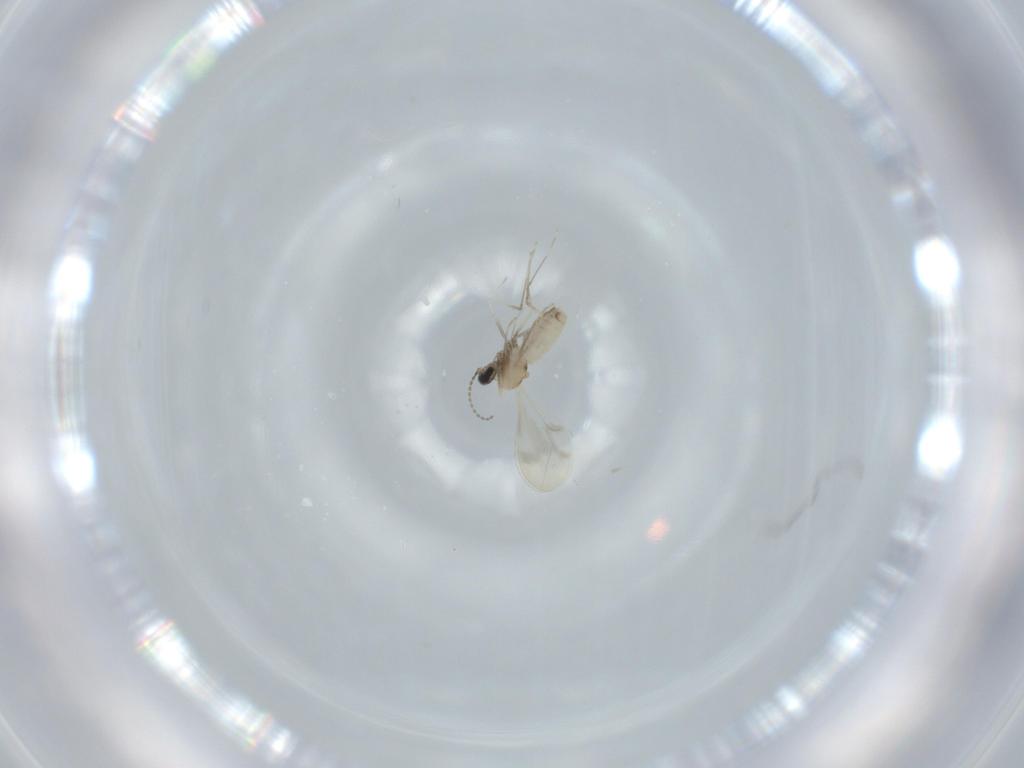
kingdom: Animalia
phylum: Arthropoda
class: Insecta
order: Diptera
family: Cecidomyiidae
